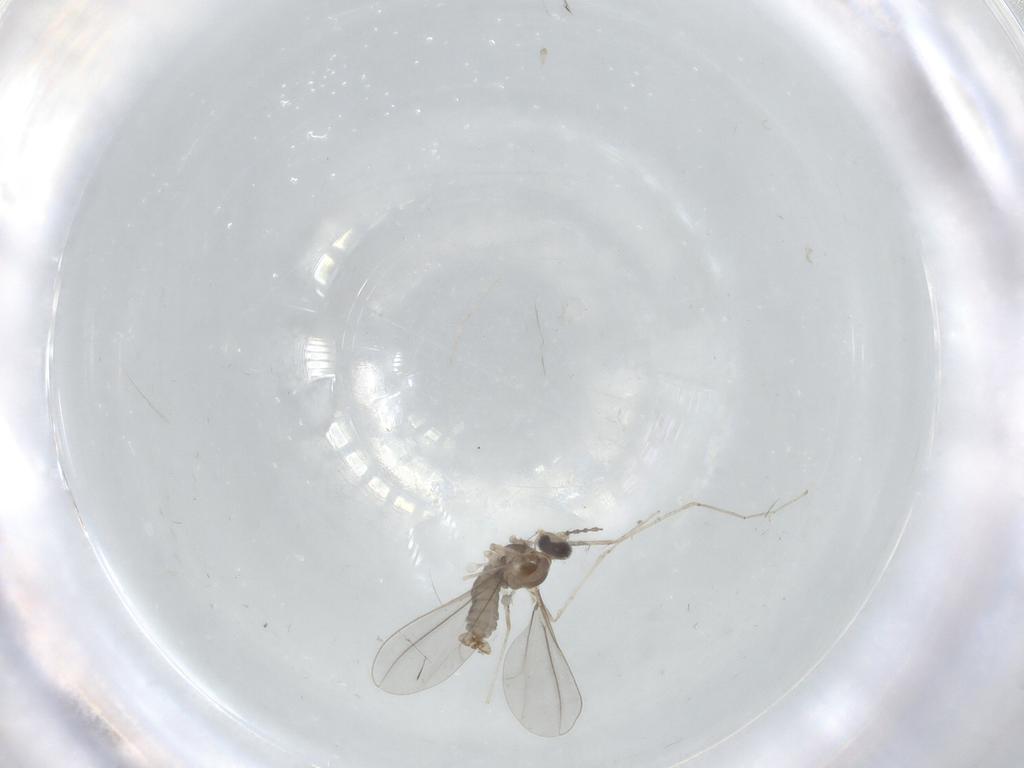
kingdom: Animalia
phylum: Arthropoda
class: Insecta
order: Diptera
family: Cecidomyiidae
